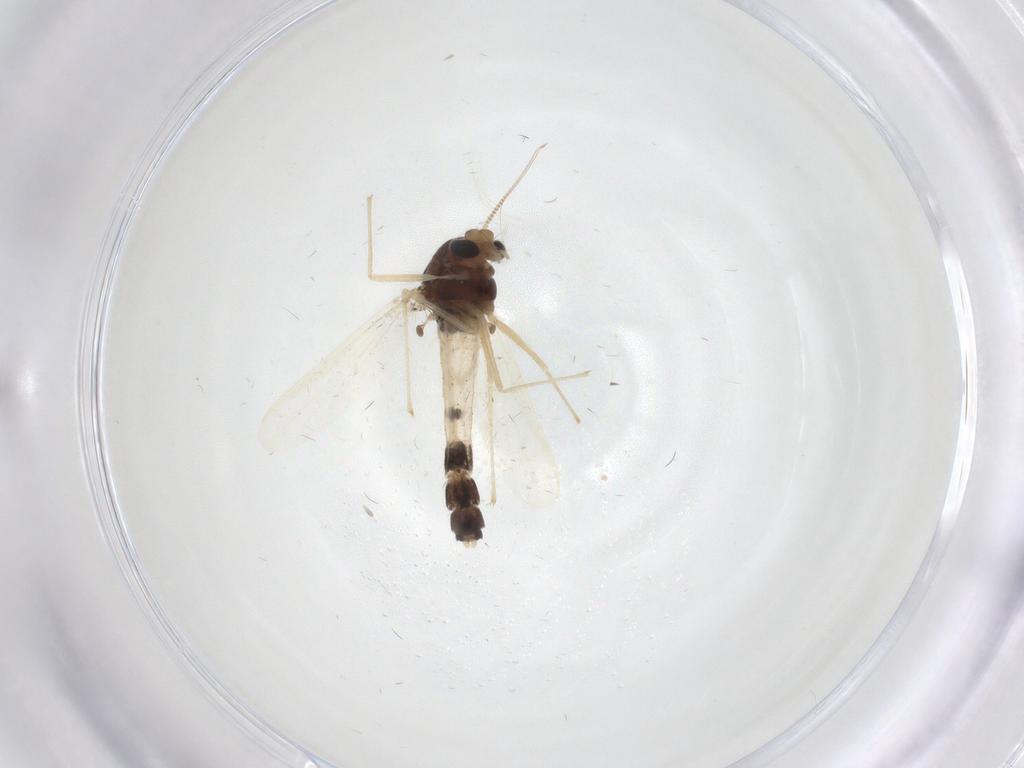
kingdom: Animalia
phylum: Arthropoda
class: Insecta
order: Diptera
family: Chironomidae
